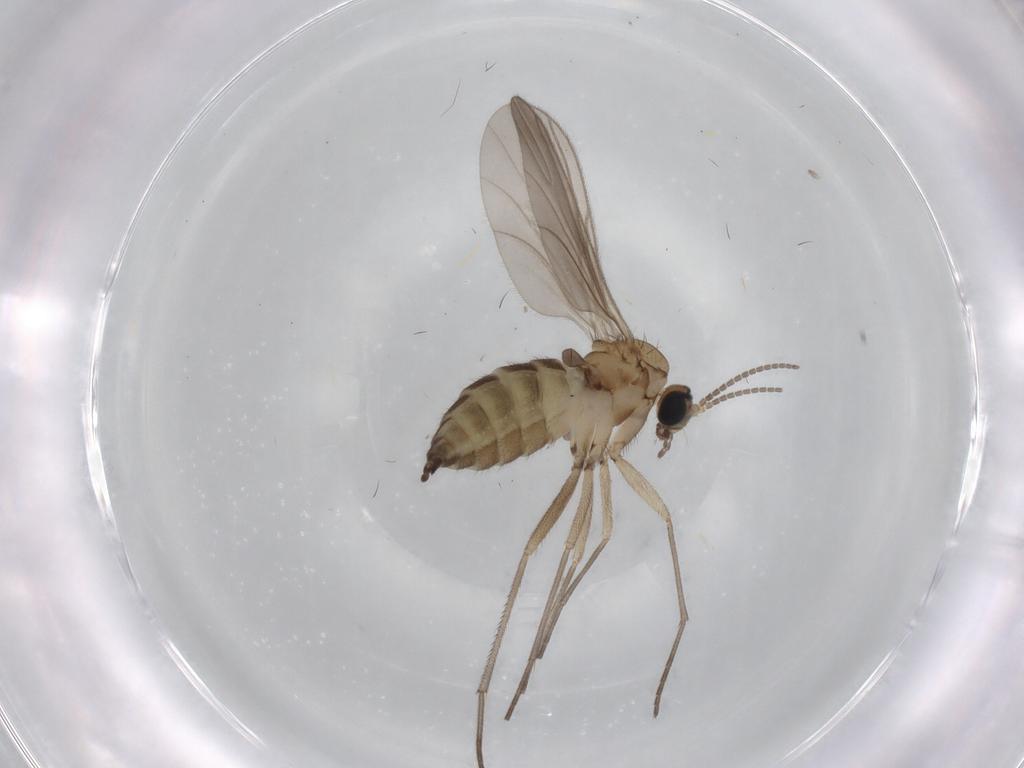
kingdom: Animalia
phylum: Arthropoda
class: Insecta
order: Diptera
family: Sciaridae
